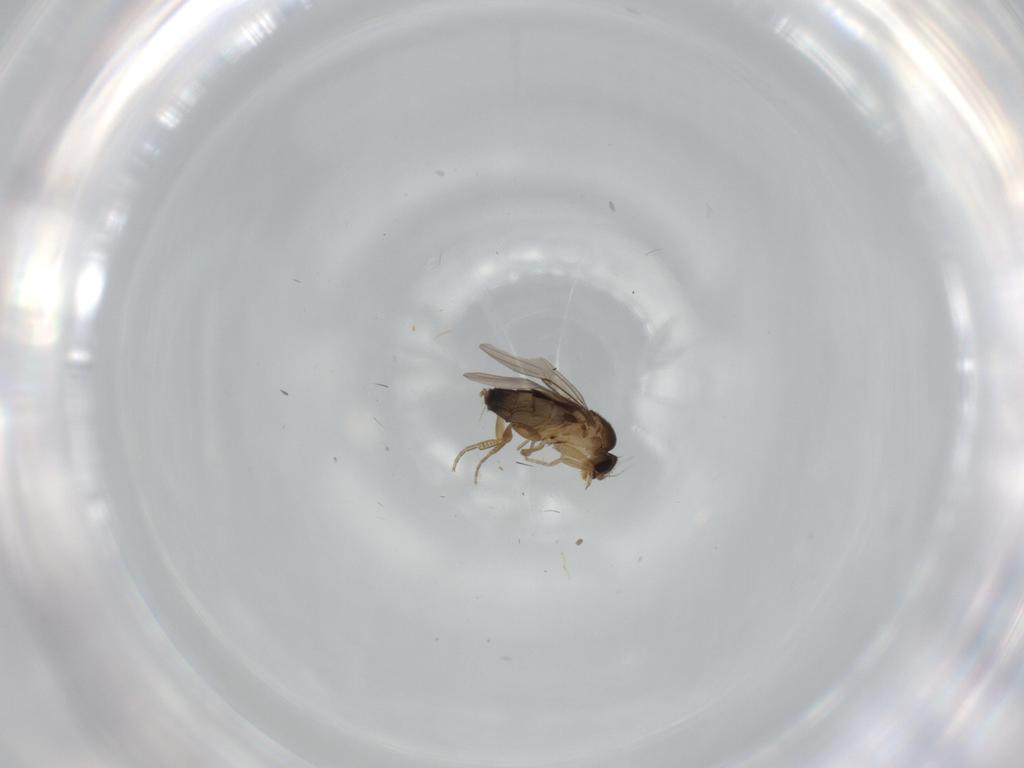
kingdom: Animalia
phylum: Arthropoda
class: Insecta
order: Diptera
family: Phoridae
